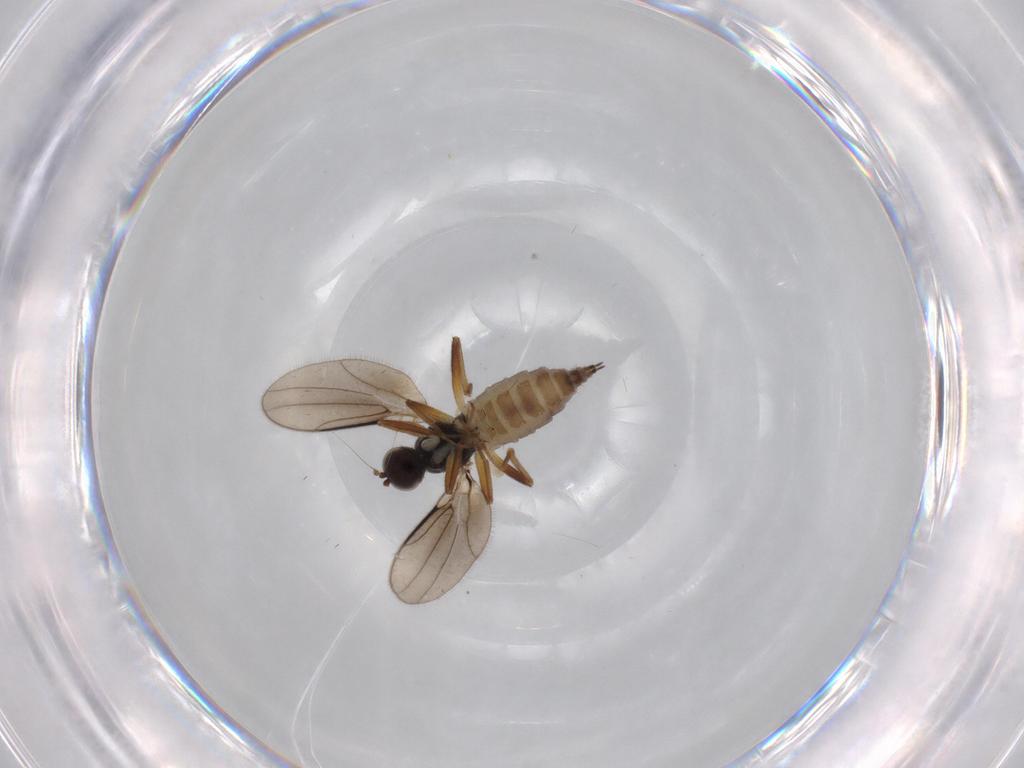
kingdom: Animalia
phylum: Arthropoda
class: Insecta
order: Diptera
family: Hybotidae
